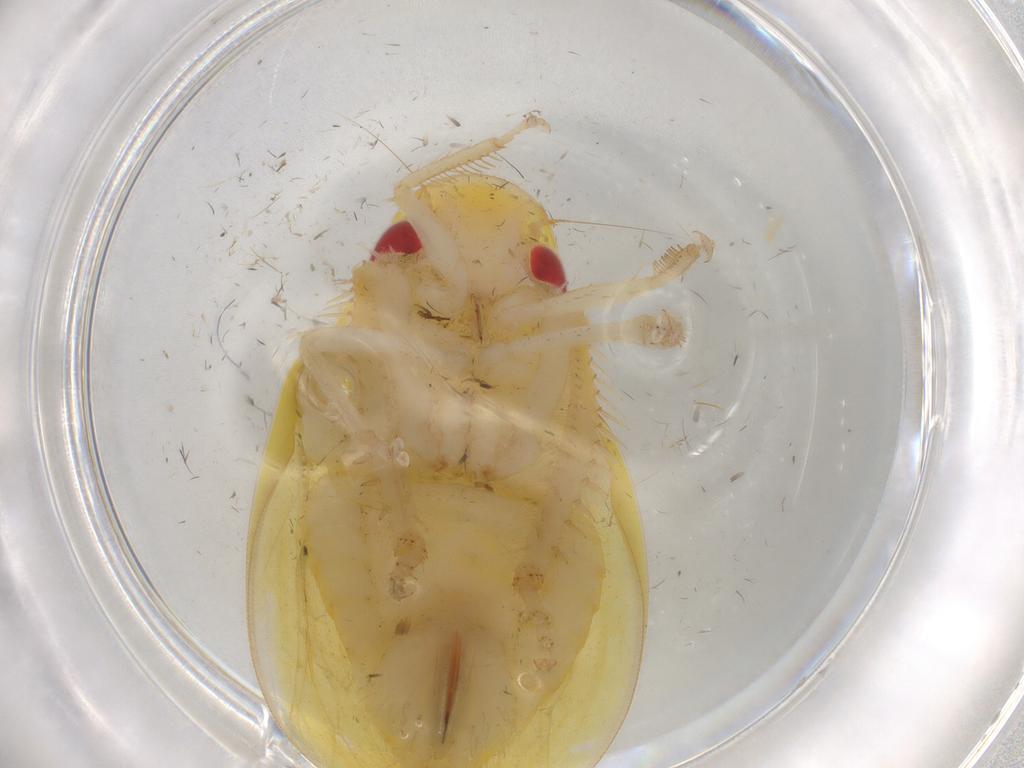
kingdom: Animalia
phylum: Arthropoda
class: Insecta
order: Hemiptera
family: Cicadellidae
